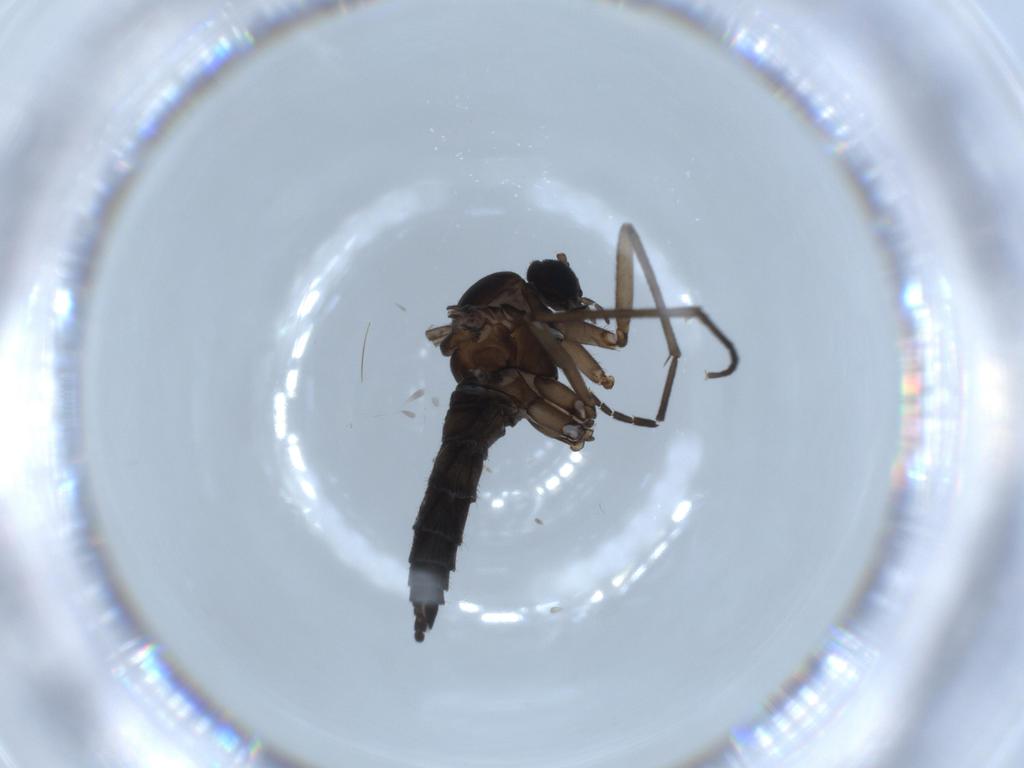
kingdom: Animalia
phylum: Arthropoda
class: Insecta
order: Diptera
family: Sciaridae
